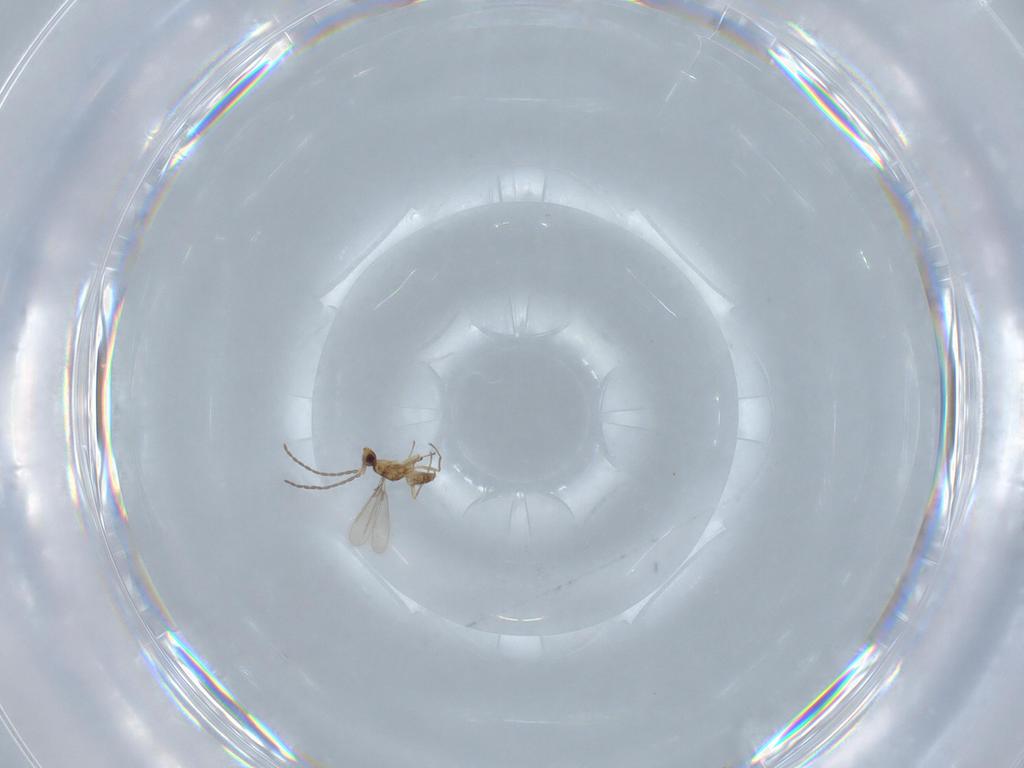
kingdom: Animalia
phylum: Arthropoda
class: Insecta
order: Hymenoptera
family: Mymaridae
